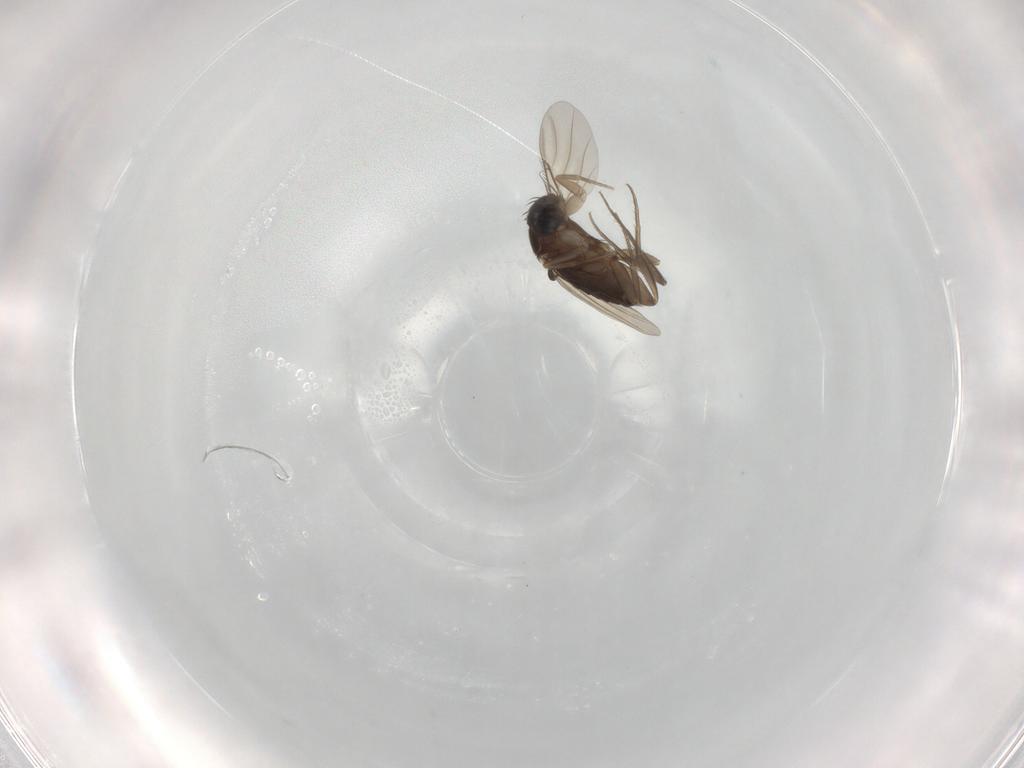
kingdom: Animalia
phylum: Arthropoda
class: Insecta
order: Diptera
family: Phoridae
